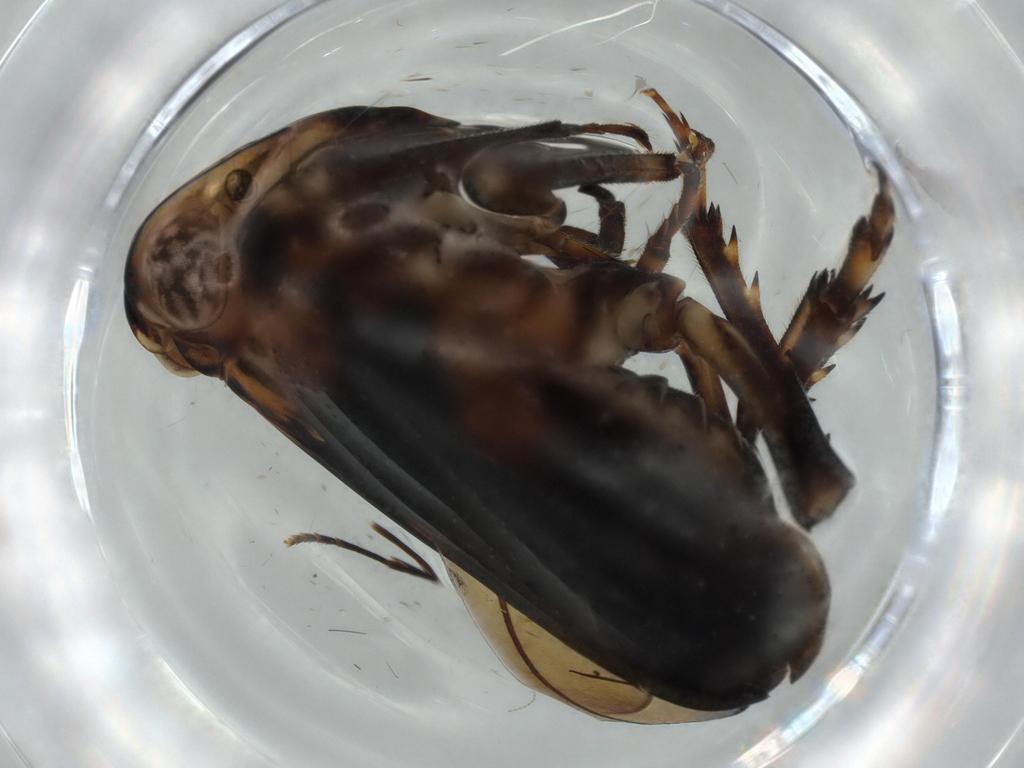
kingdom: Animalia
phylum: Arthropoda
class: Insecta
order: Hemiptera
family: Issidae
